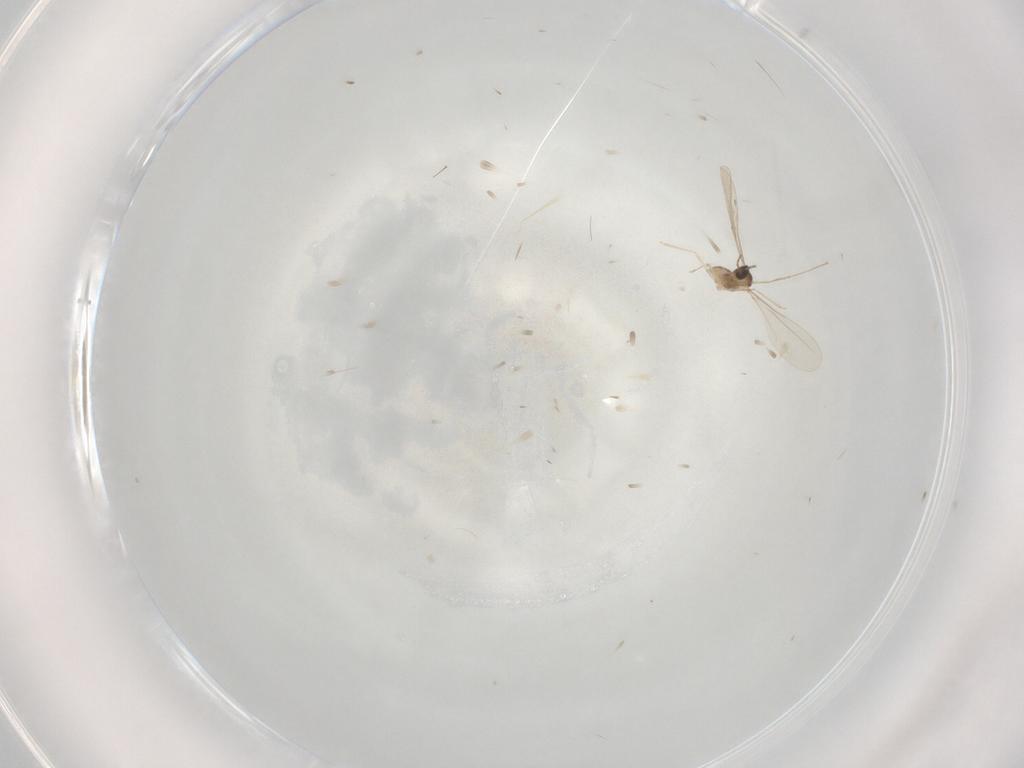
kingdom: Animalia
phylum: Arthropoda
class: Insecta
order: Diptera
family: Cecidomyiidae
